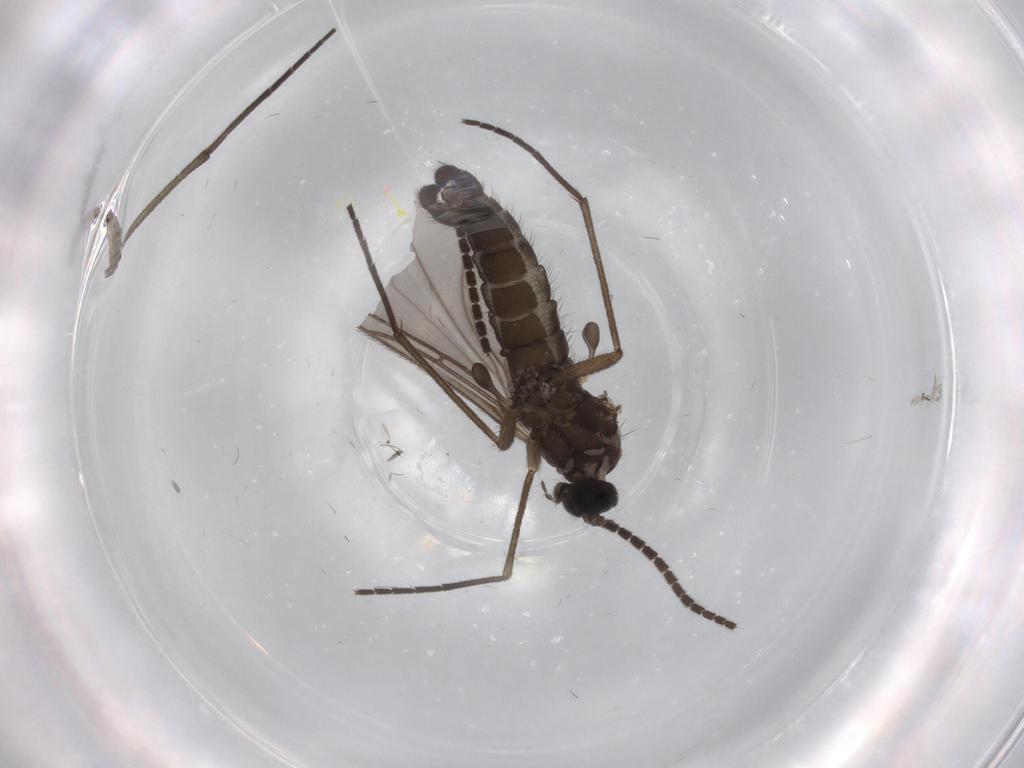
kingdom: Animalia
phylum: Arthropoda
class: Insecta
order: Diptera
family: Sciaridae
